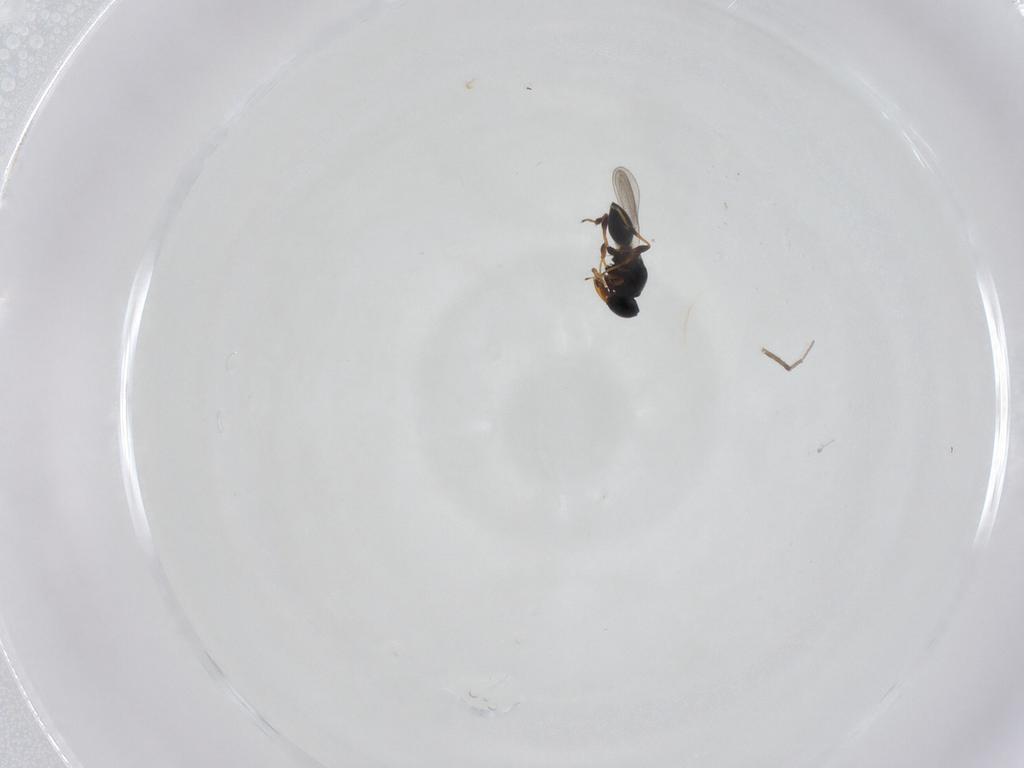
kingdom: Animalia
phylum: Arthropoda
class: Insecta
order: Hymenoptera
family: Platygastridae
